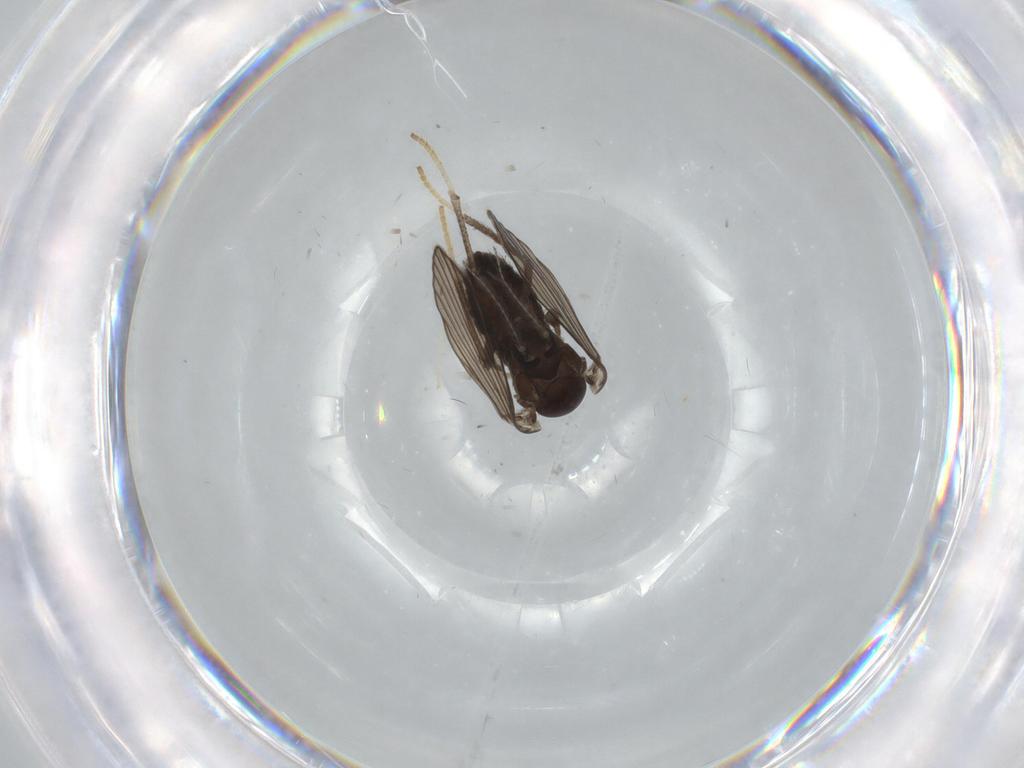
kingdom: Animalia
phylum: Arthropoda
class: Insecta
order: Diptera
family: Psychodidae
